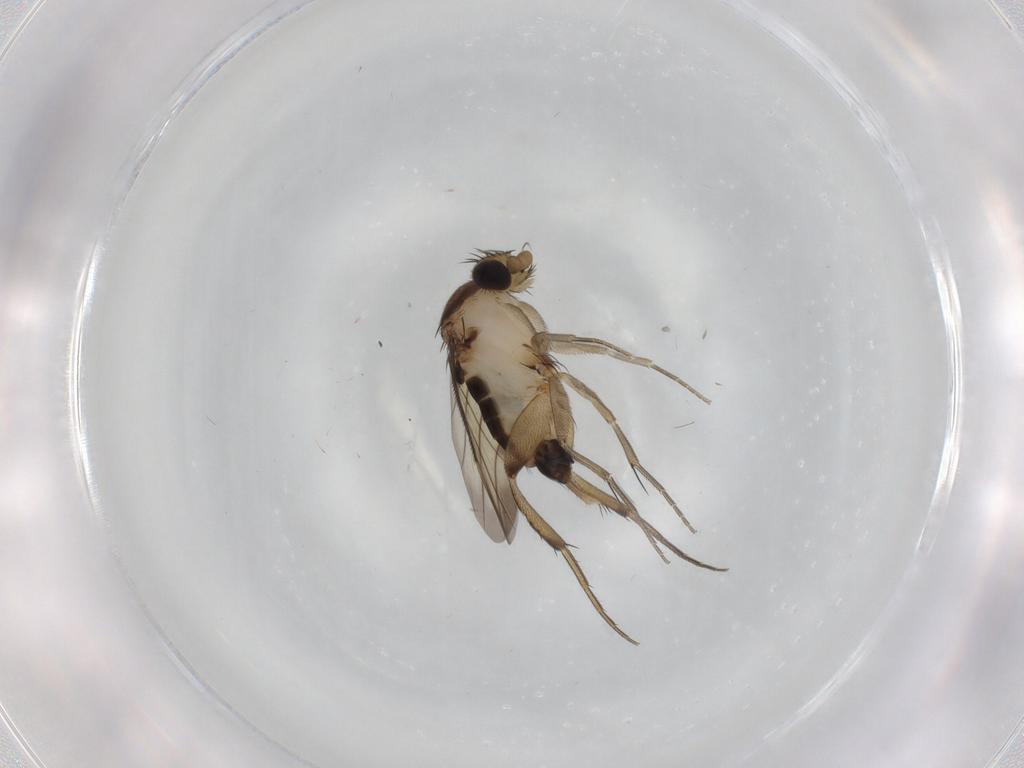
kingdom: Animalia
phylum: Arthropoda
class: Insecta
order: Diptera
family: Phoridae
